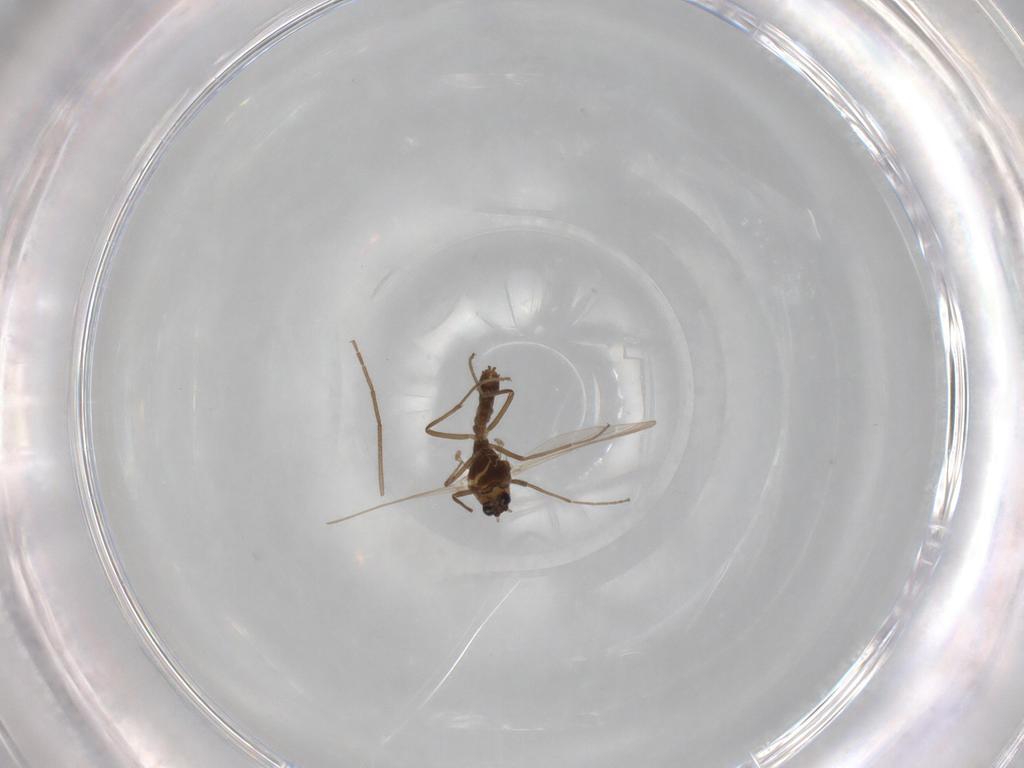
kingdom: Animalia
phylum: Arthropoda
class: Insecta
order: Diptera
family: Chironomidae
